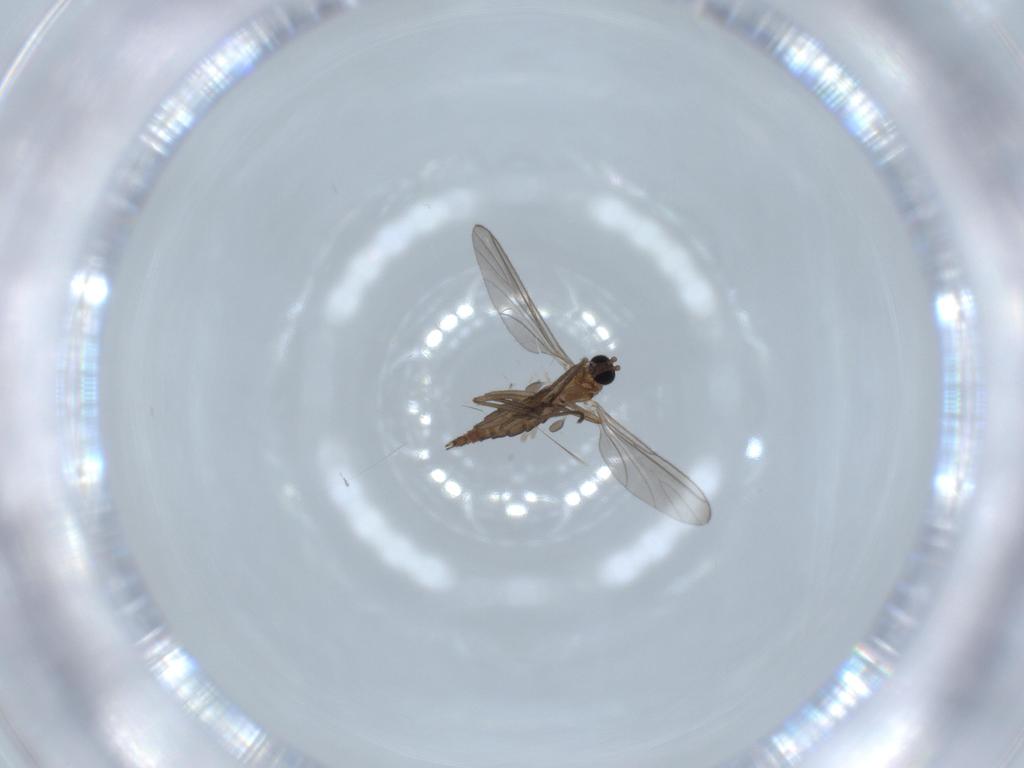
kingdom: Animalia
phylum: Arthropoda
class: Insecta
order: Diptera
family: Sciaridae
